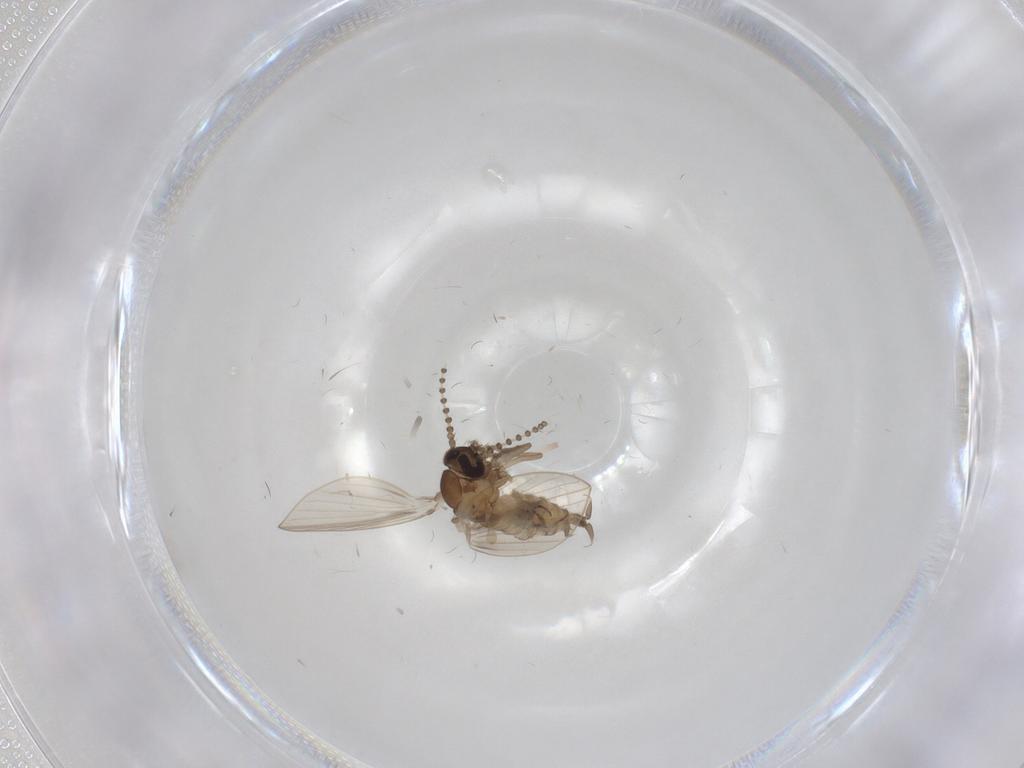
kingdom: Animalia
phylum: Arthropoda
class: Insecta
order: Diptera
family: Psychodidae
